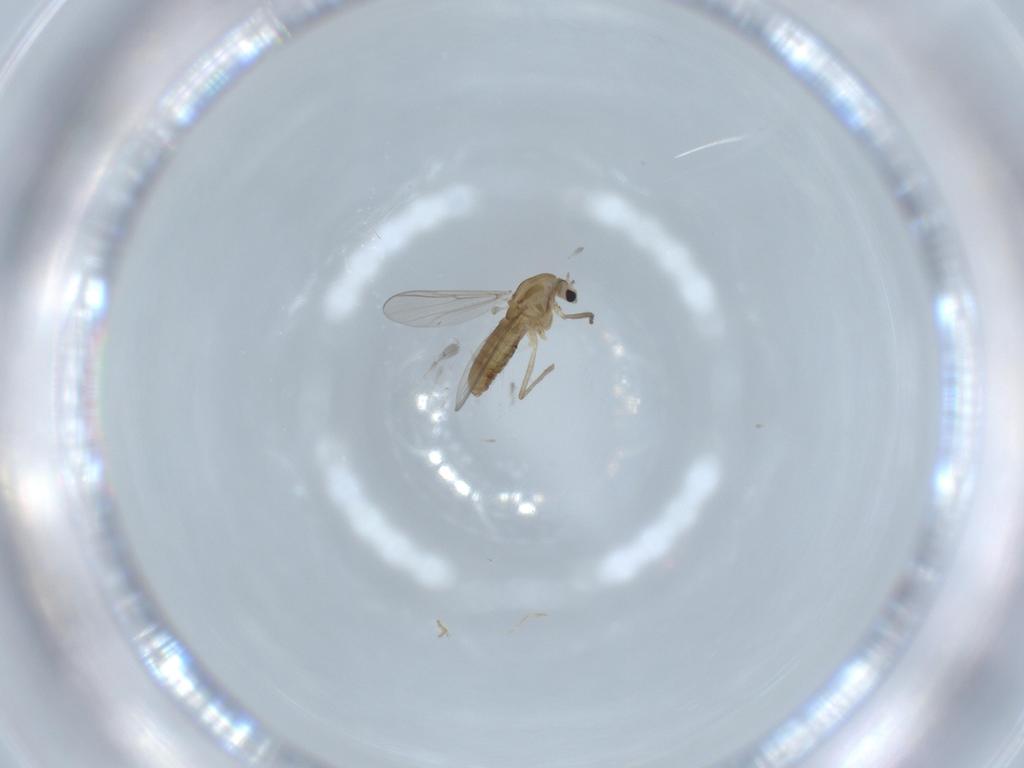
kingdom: Animalia
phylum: Arthropoda
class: Insecta
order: Diptera
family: Chironomidae
